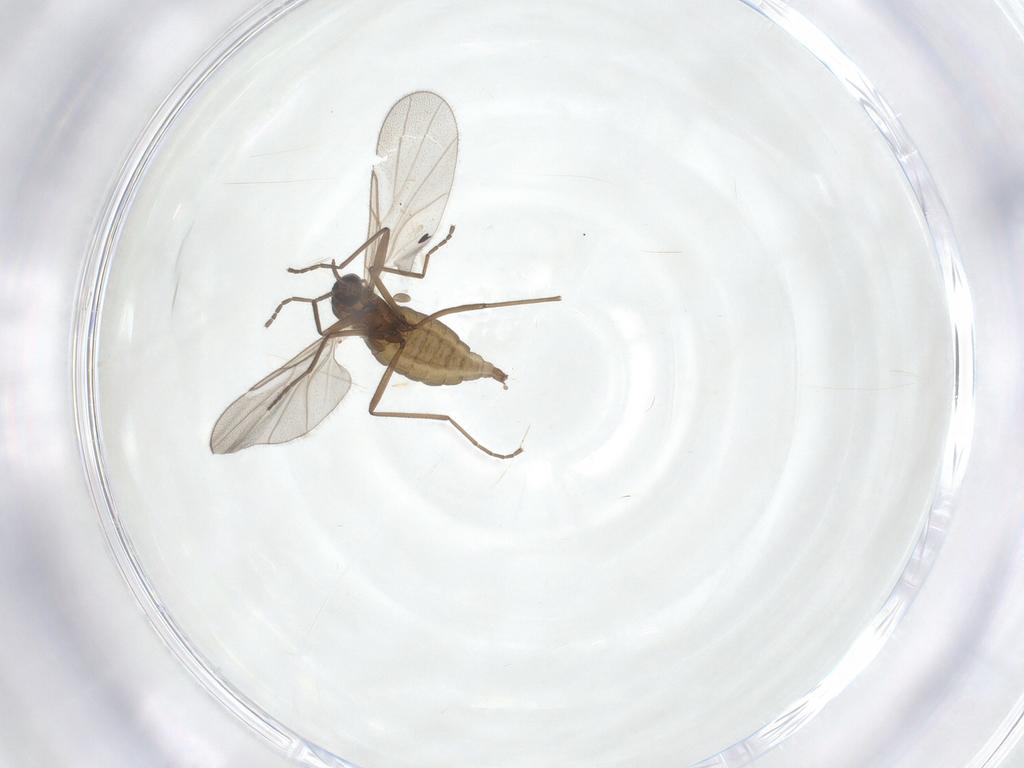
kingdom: Animalia
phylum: Arthropoda
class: Insecta
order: Diptera
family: Cecidomyiidae
